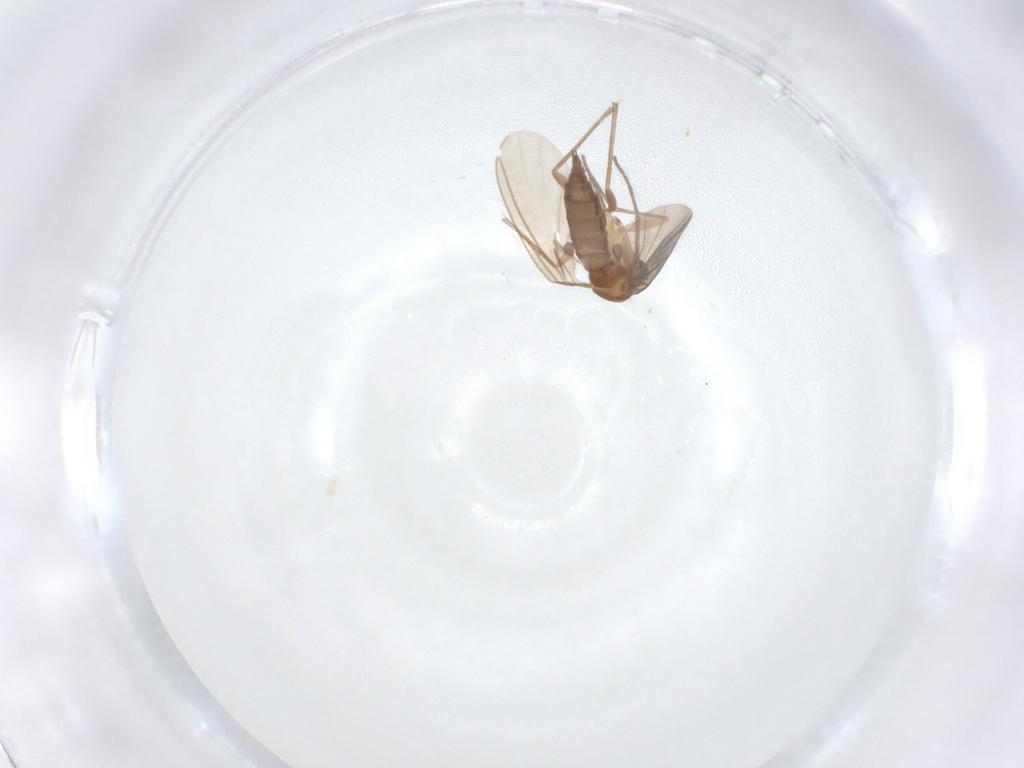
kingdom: Animalia
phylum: Arthropoda
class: Insecta
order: Diptera
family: Sciaridae
